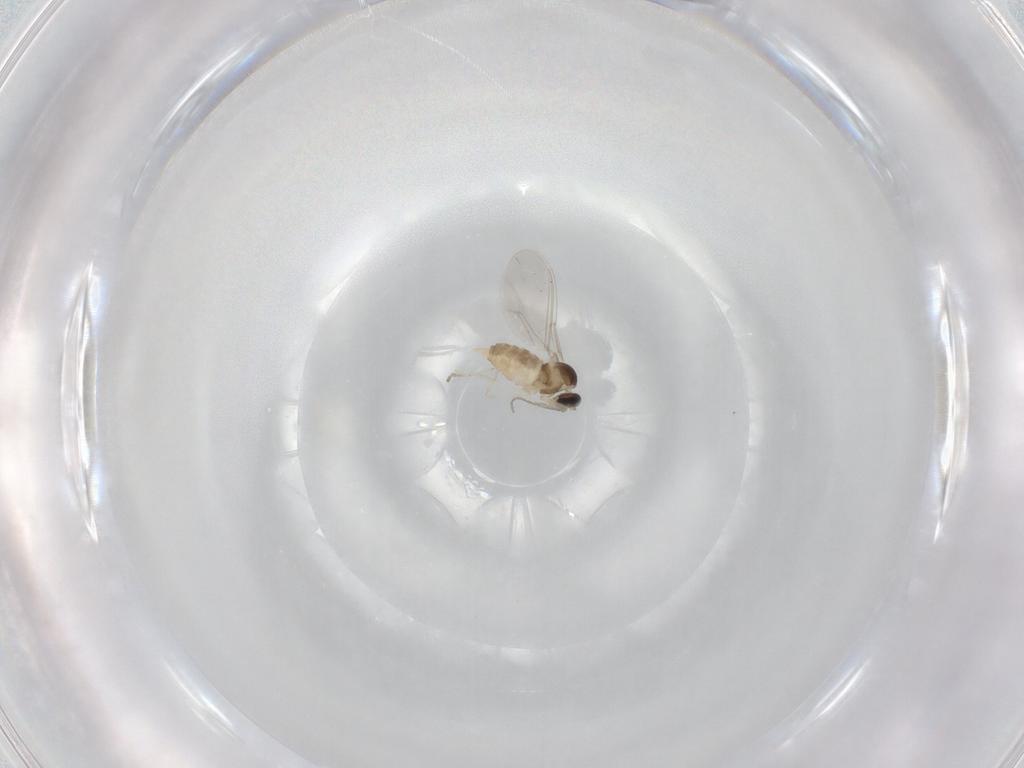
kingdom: Animalia
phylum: Arthropoda
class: Insecta
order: Diptera
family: Cecidomyiidae
